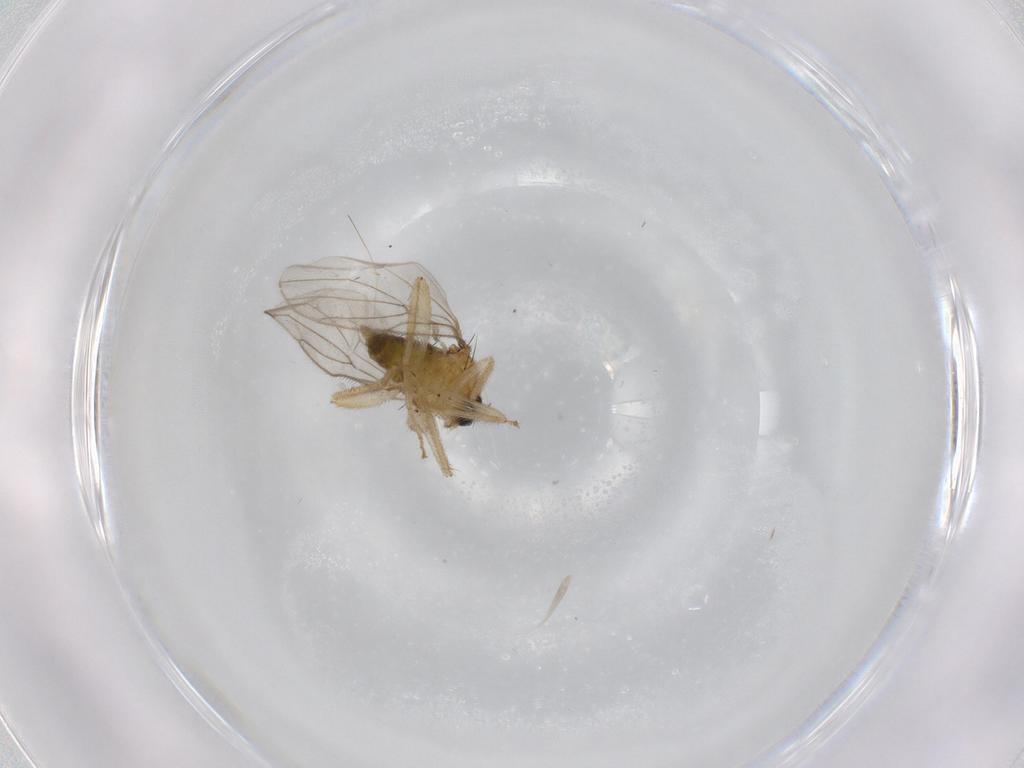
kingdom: Animalia
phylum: Arthropoda
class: Insecta
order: Diptera
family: Hybotidae
